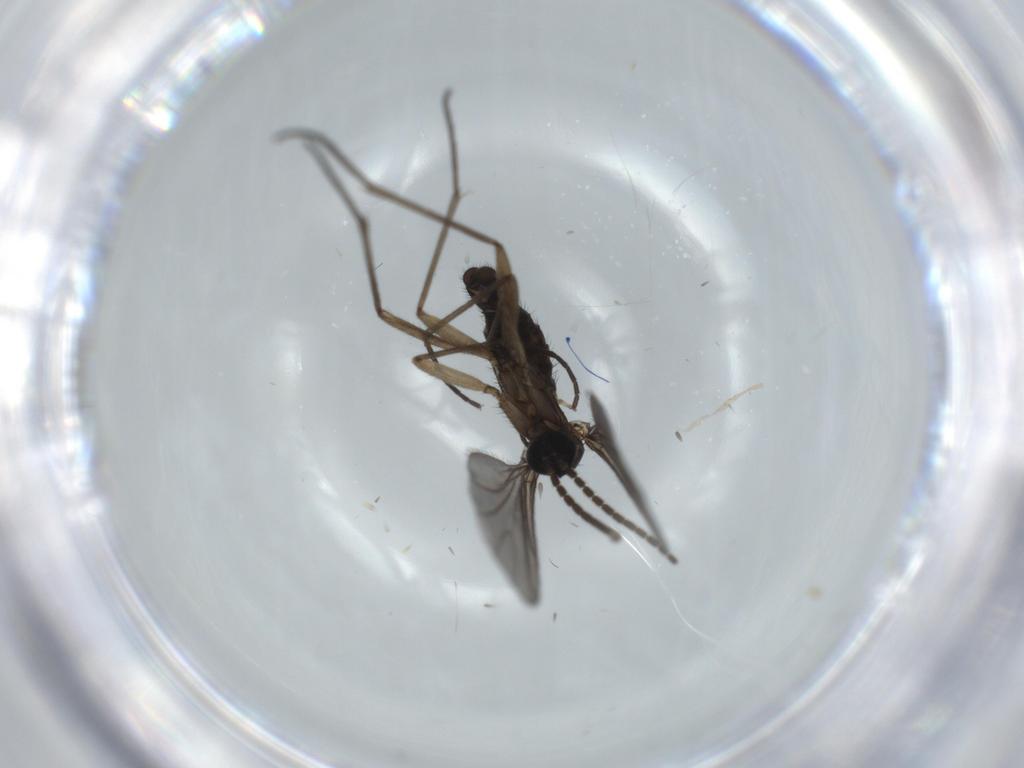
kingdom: Animalia
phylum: Arthropoda
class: Insecta
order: Diptera
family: Sciaridae
